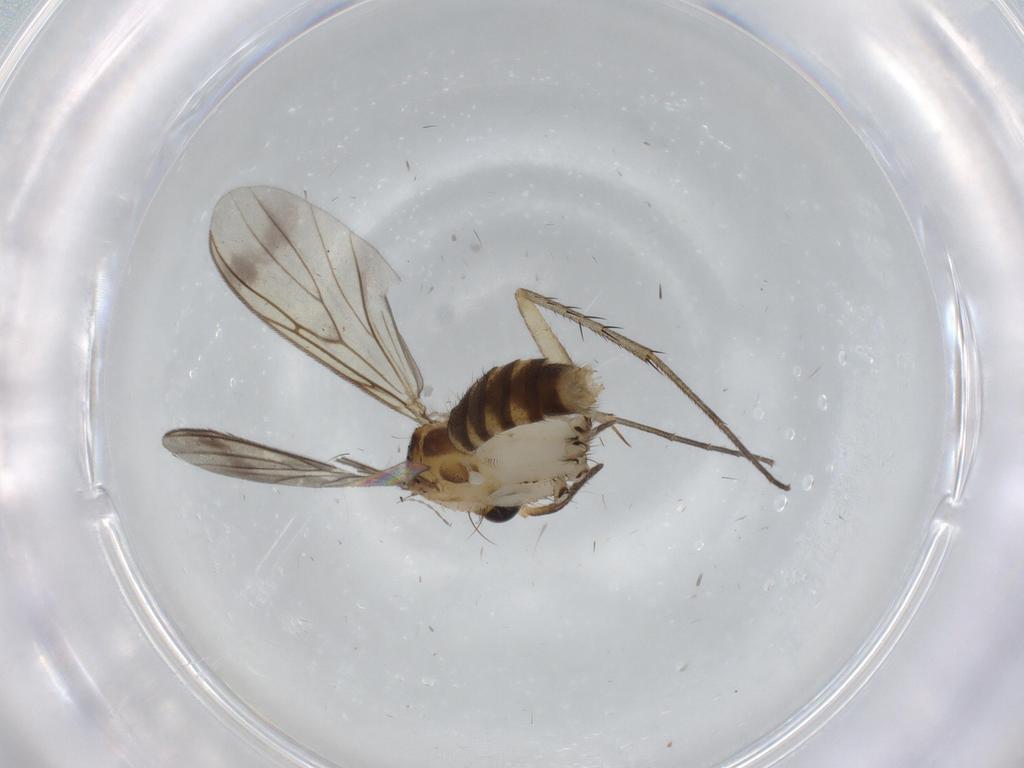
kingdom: Animalia
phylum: Arthropoda
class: Insecta
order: Diptera
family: Mycetophilidae
